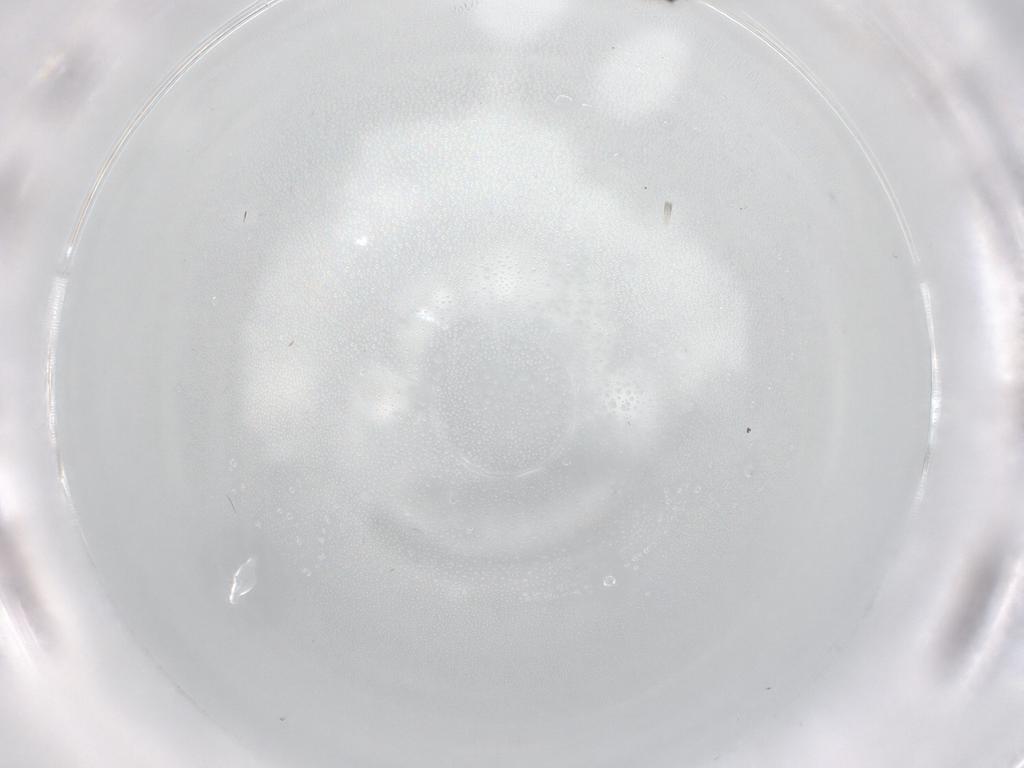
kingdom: Animalia
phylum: Arthropoda
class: Insecta
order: Diptera
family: Cecidomyiidae
